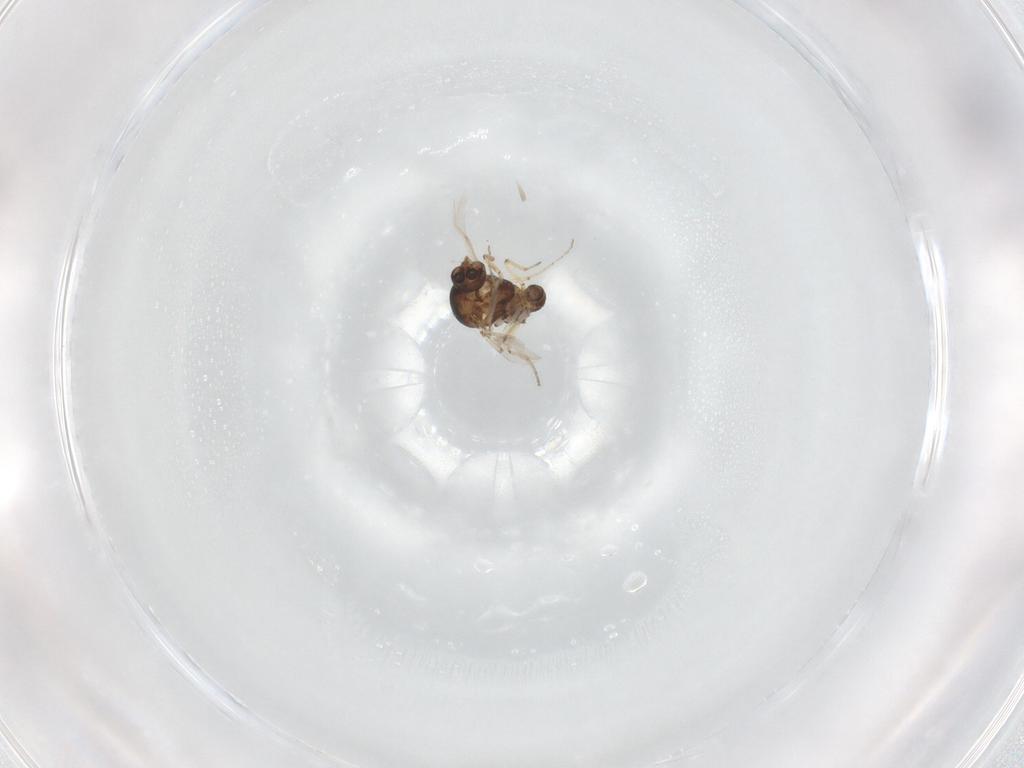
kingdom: Animalia
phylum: Arthropoda
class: Insecta
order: Diptera
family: Ceratopogonidae
